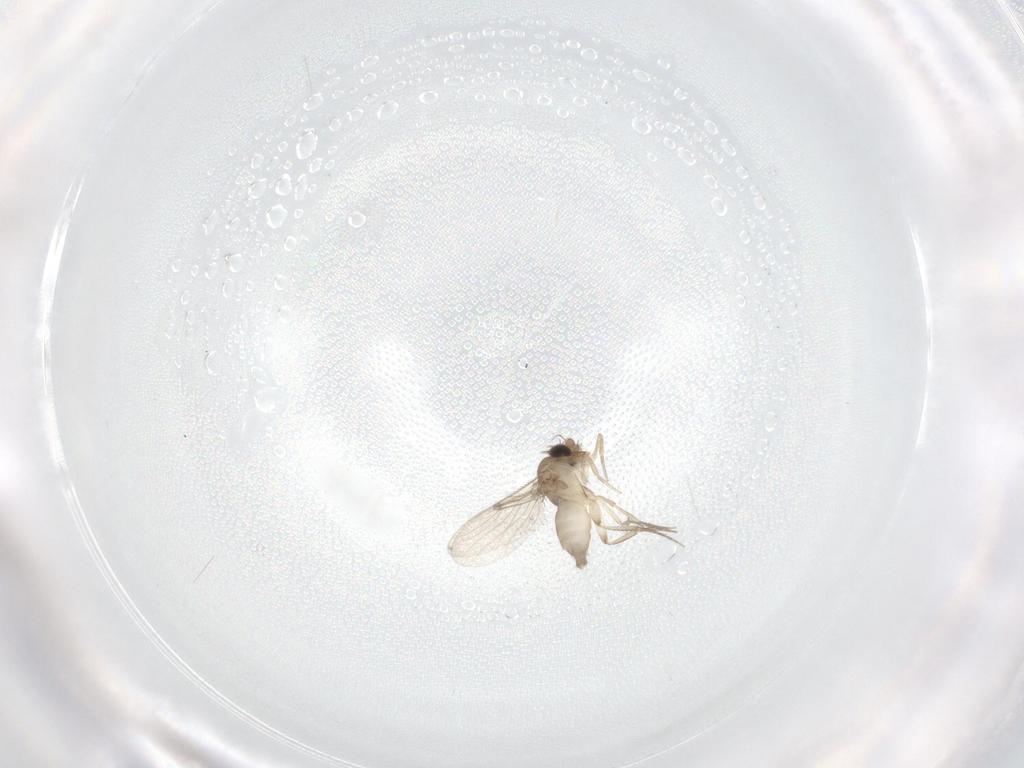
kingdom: Animalia
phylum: Arthropoda
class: Insecta
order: Diptera
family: Phoridae
